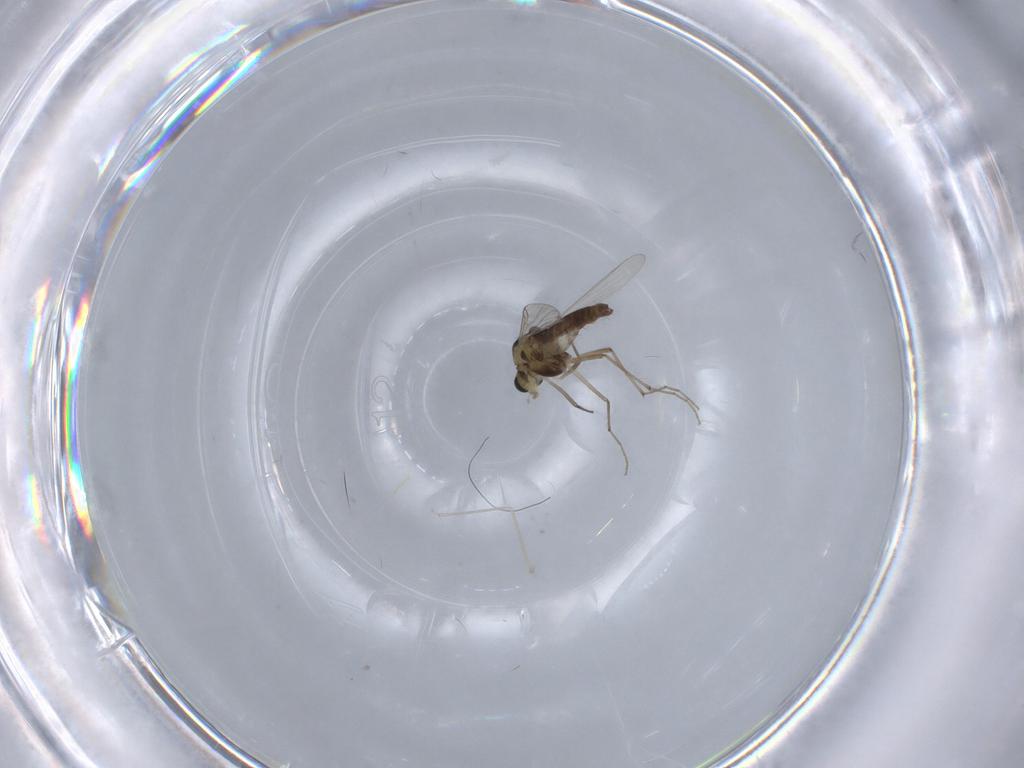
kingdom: Animalia
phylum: Arthropoda
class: Insecta
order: Diptera
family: Chironomidae
